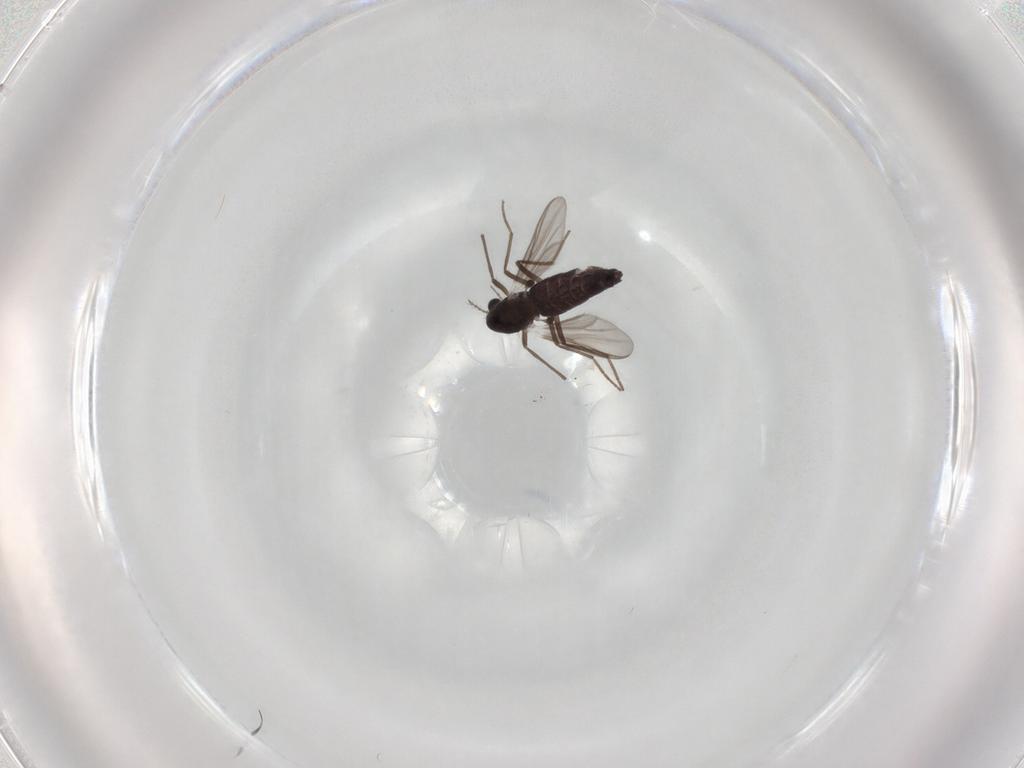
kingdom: Animalia
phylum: Arthropoda
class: Insecta
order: Diptera
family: Chironomidae
